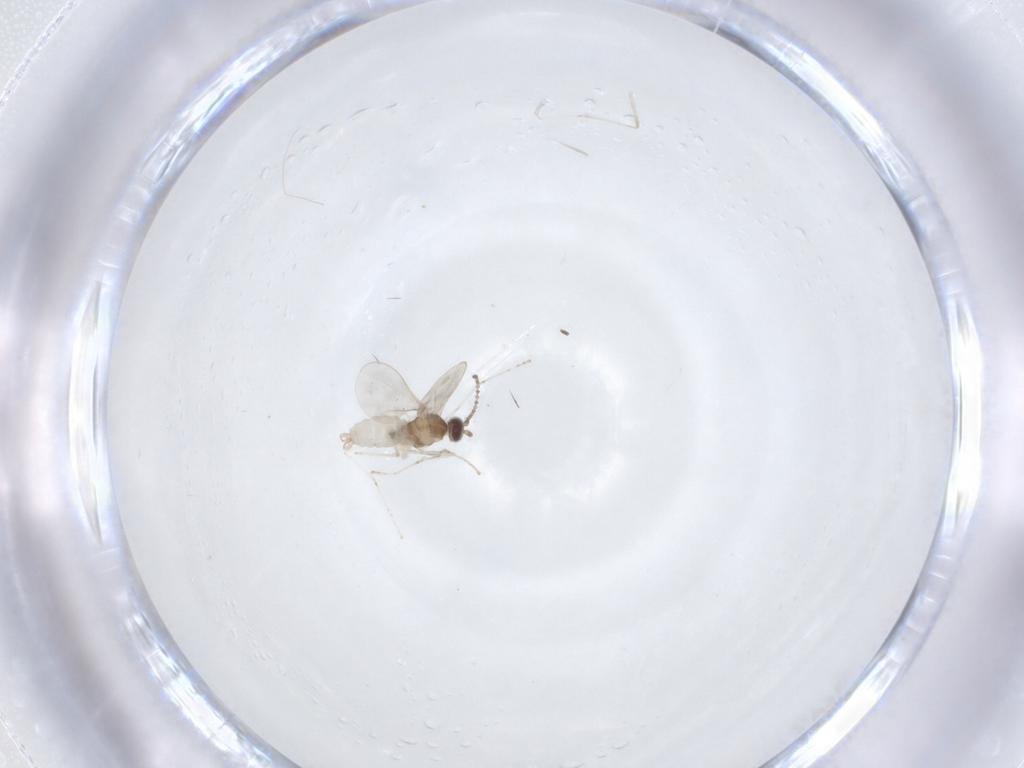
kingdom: Animalia
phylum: Arthropoda
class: Insecta
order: Diptera
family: Cecidomyiidae
